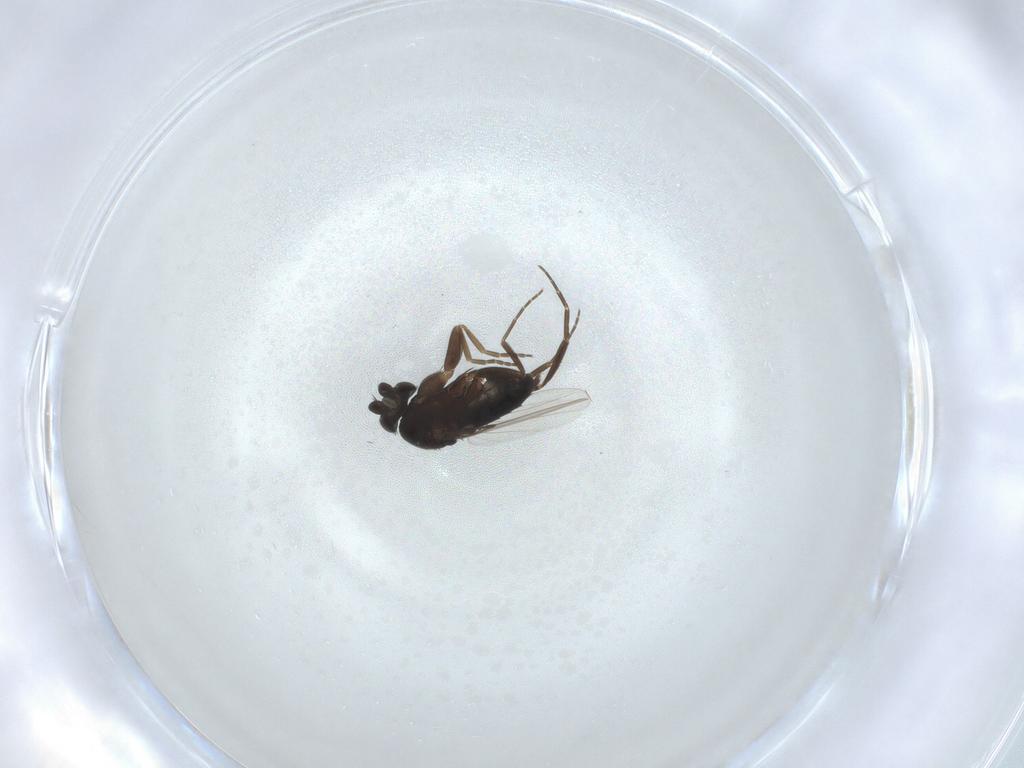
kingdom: Animalia
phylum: Arthropoda
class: Insecta
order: Diptera
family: Phoridae
